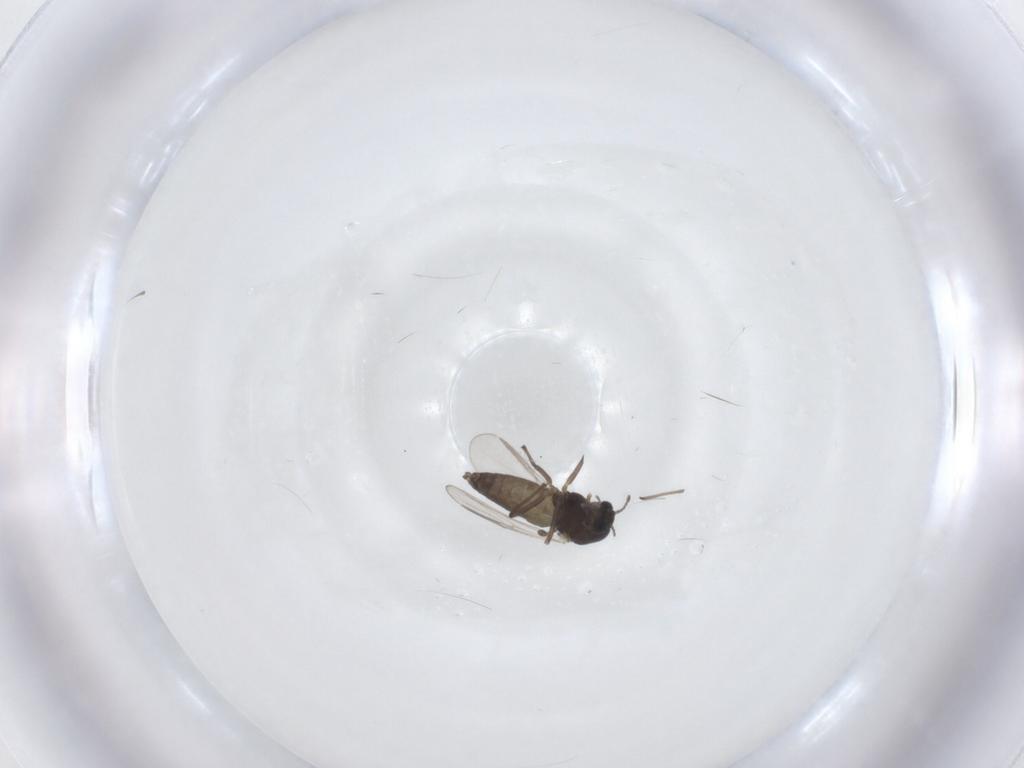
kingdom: Animalia
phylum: Arthropoda
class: Insecta
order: Diptera
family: Chironomidae
